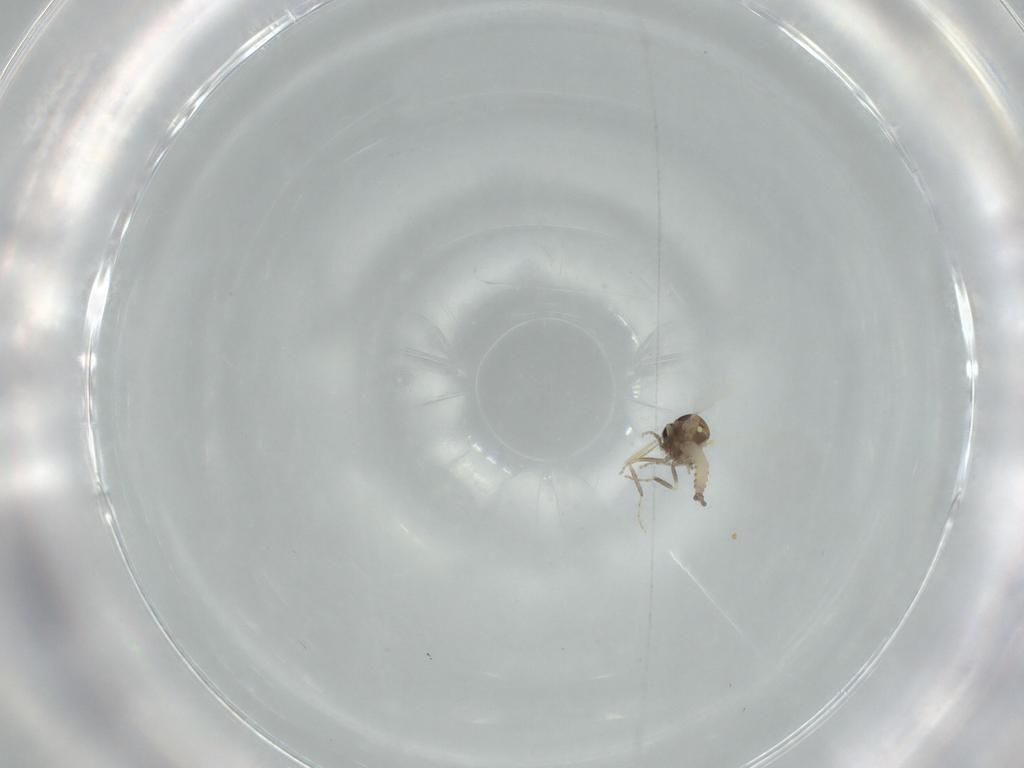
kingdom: Animalia
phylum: Arthropoda
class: Insecta
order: Diptera
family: Ceratopogonidae
